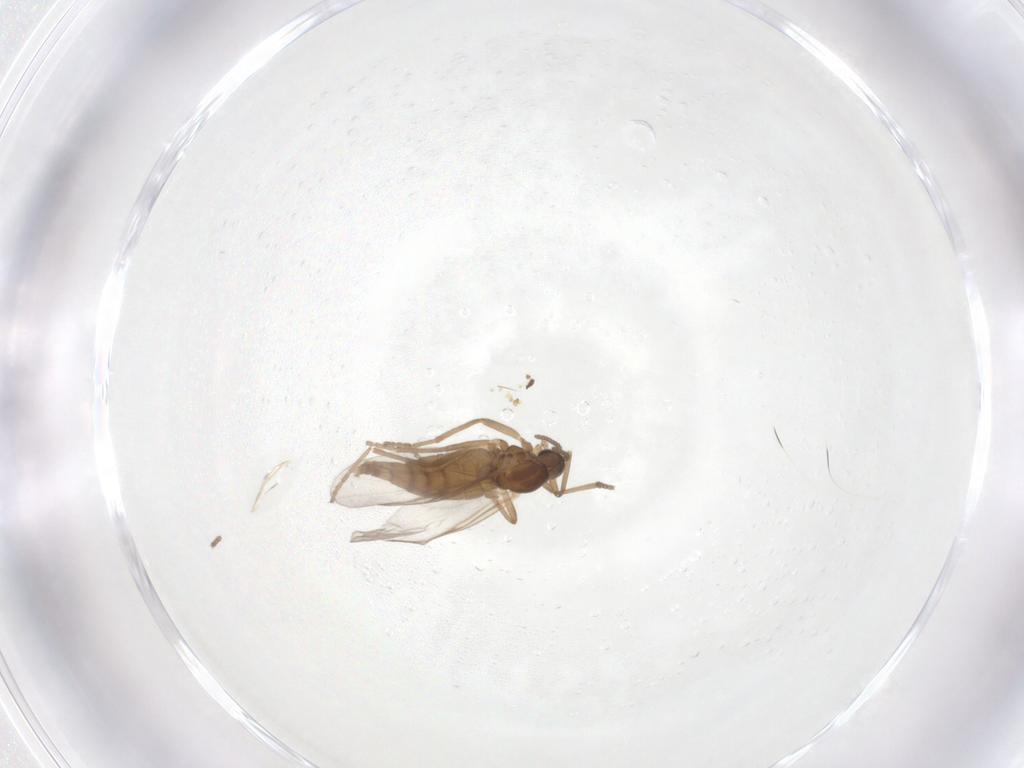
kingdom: Animalia
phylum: Arthropoda
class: Insecta
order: Diptera
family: Cecidomyiidae
